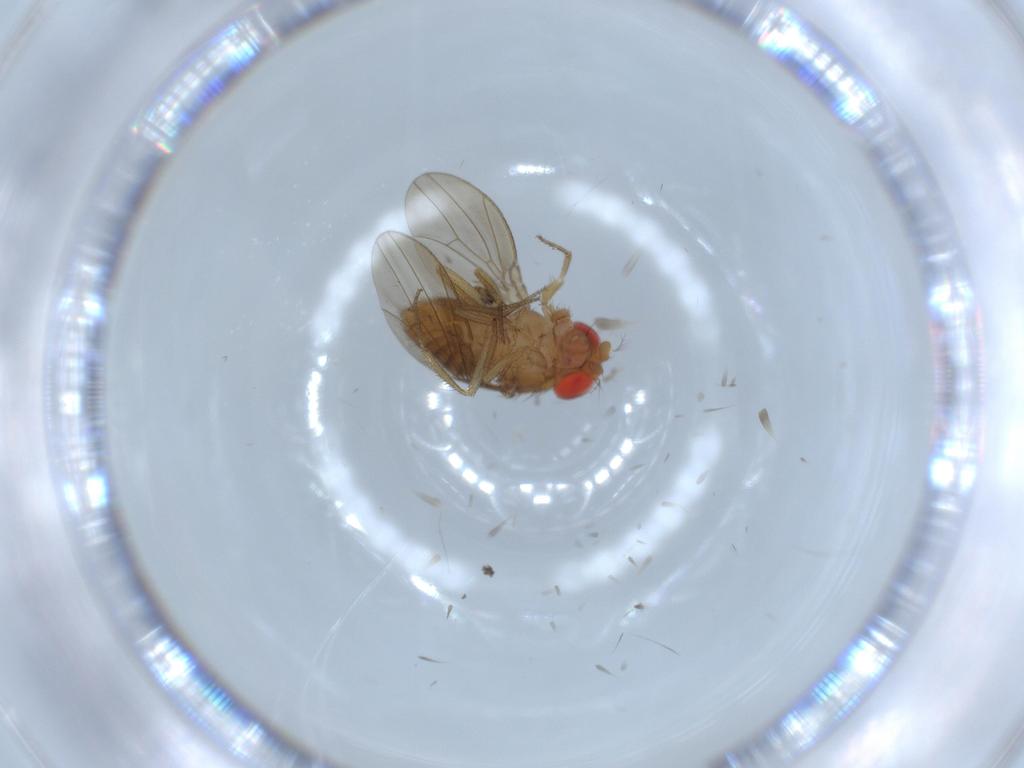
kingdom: Animalia
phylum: Arthropoda
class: Insecta
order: Diptera
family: Drosophilidae
